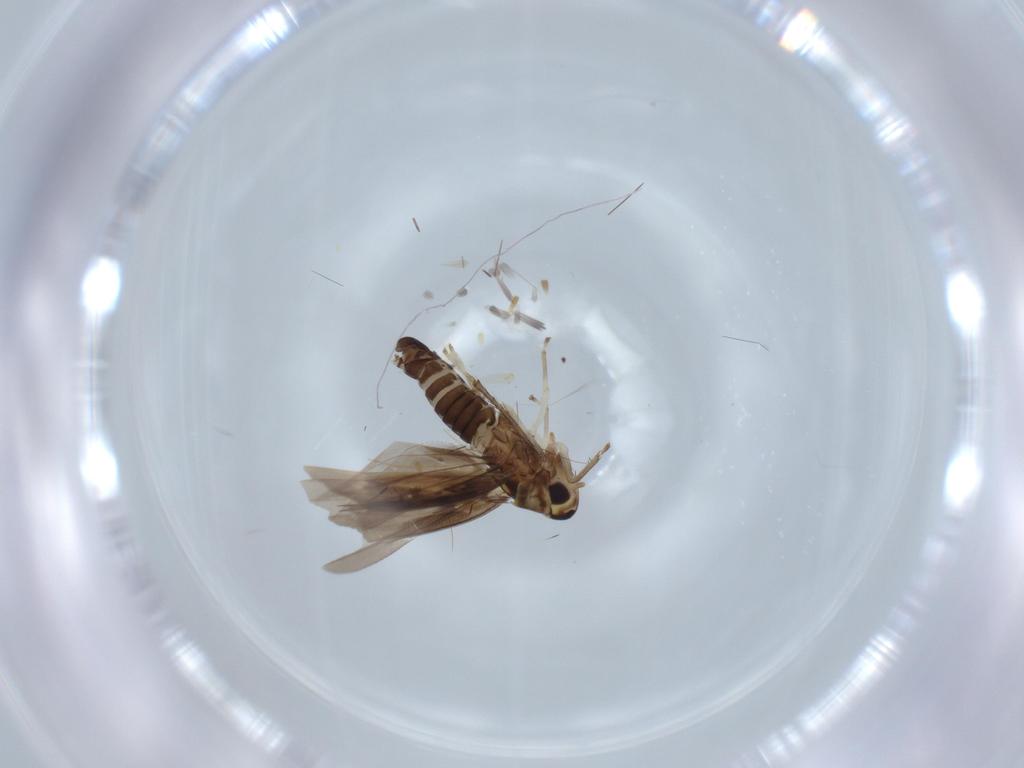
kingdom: Animalia
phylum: Arthropoda
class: Insecta
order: Hemiptera
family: Cicadellidae
